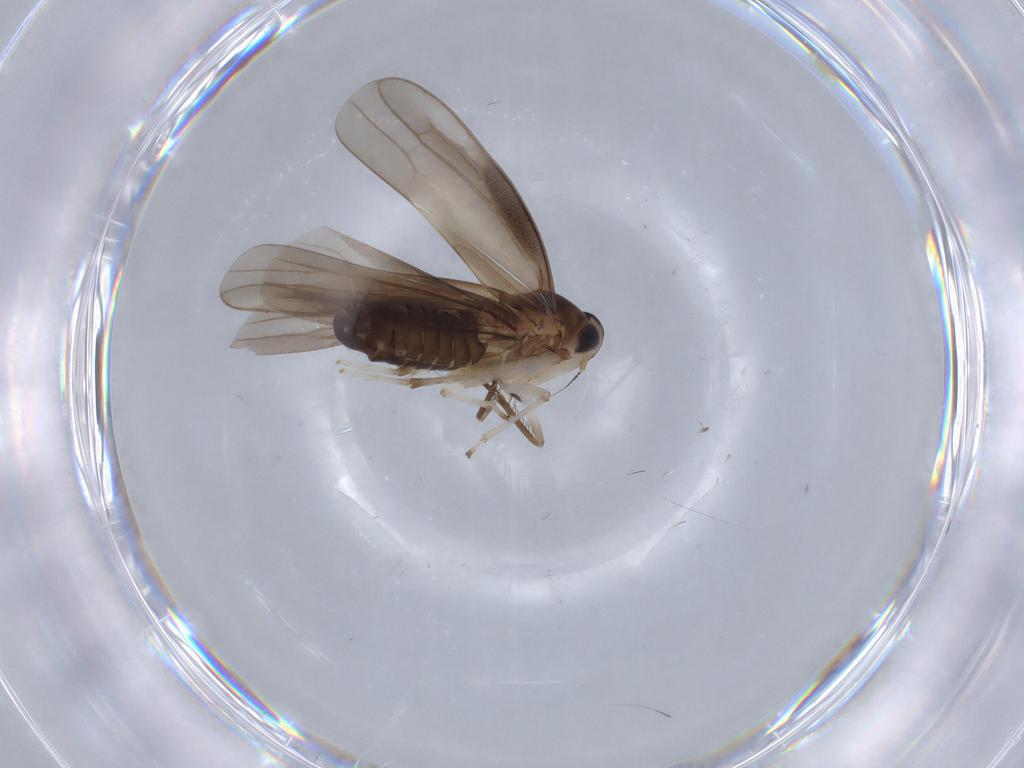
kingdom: Animalia
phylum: Arthropoda
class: Insecta
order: Hemiptera
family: Cicadellidae
